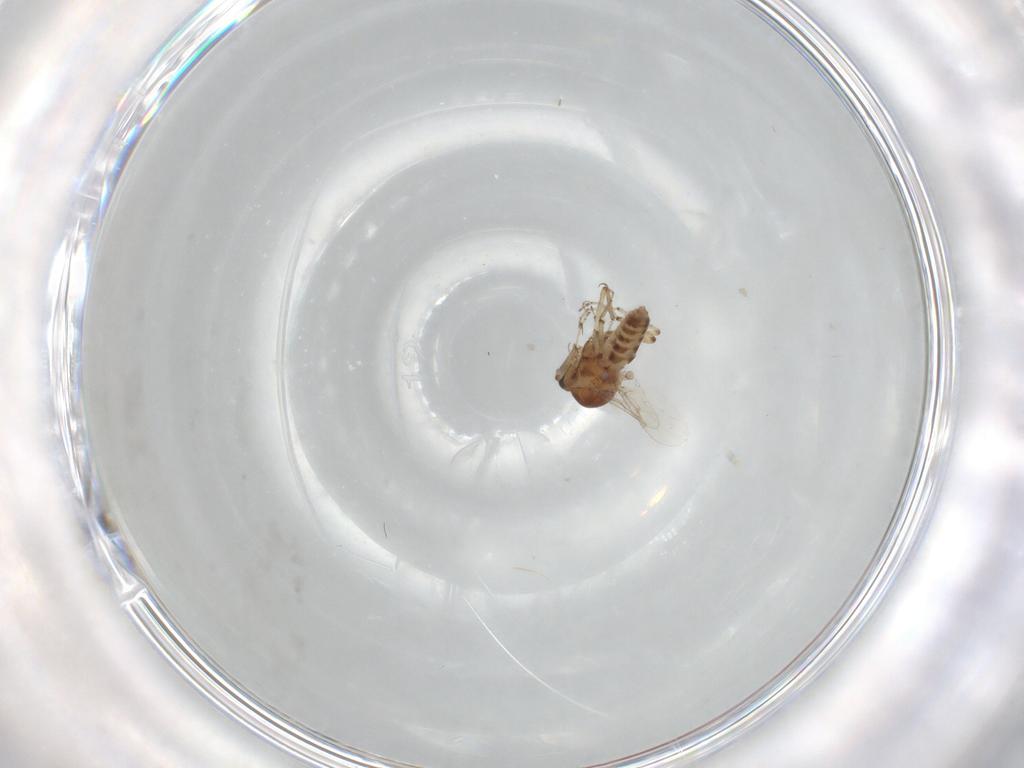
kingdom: Animalia
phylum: Arthropoda
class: Insecta
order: Diptera
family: Ceratopogonidae
